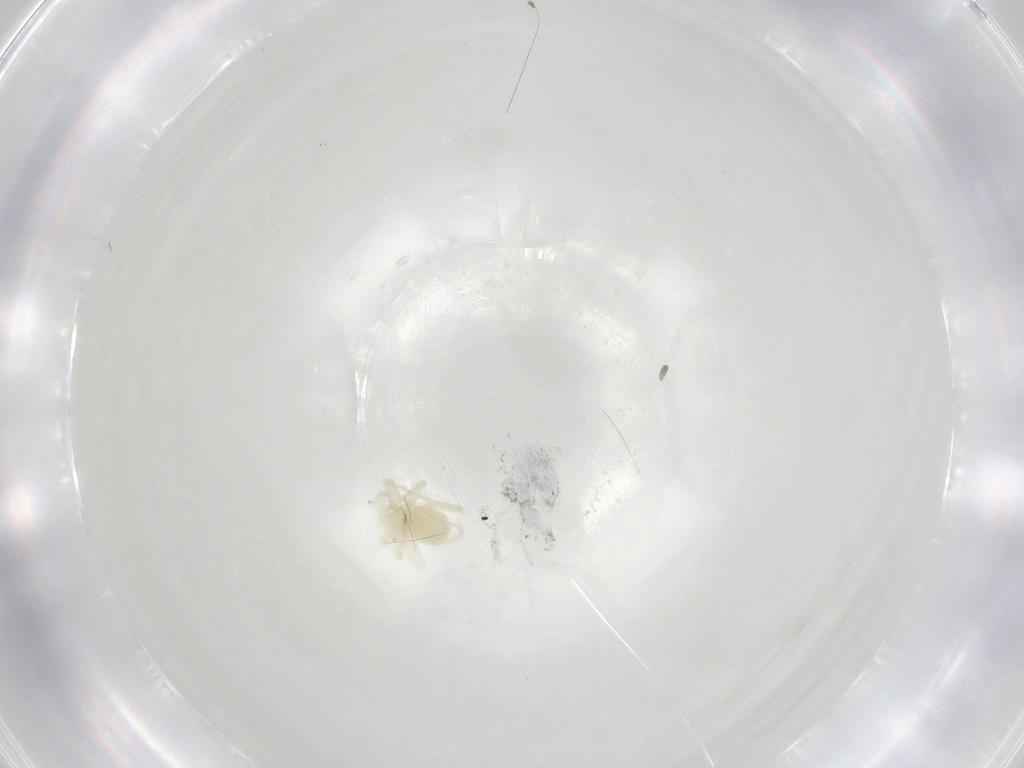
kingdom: Animalia
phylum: Arthropoda
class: Arachnida
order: Trombidiformes
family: Anystidae
